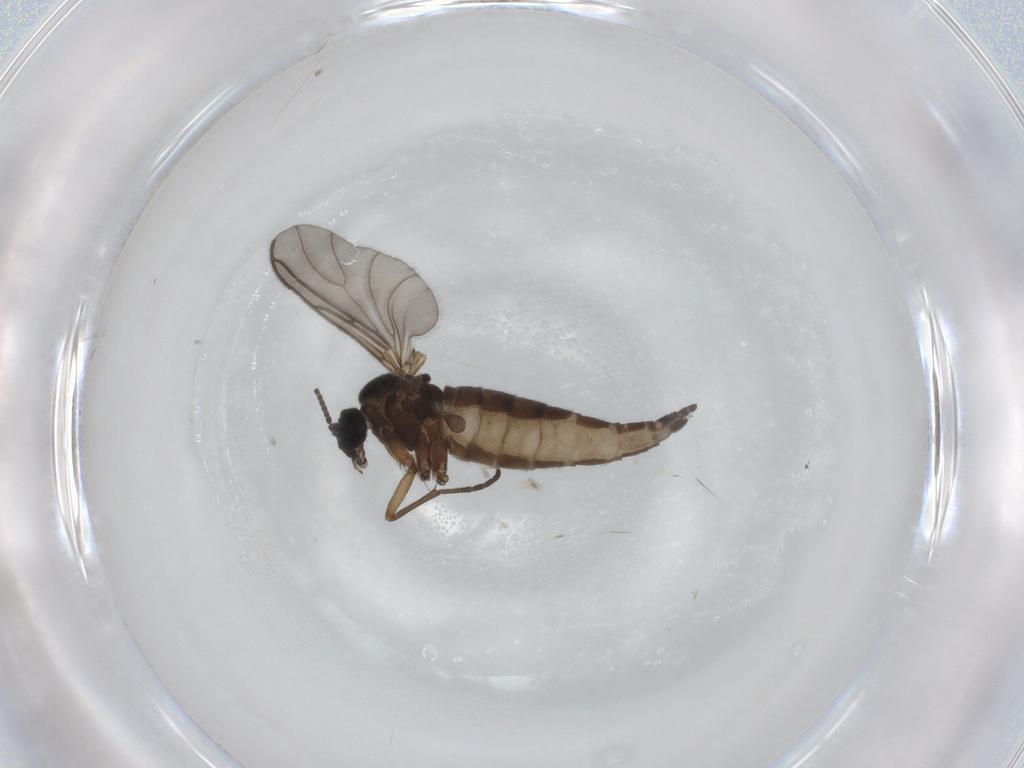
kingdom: Animalia
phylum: Arthropoda
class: Insecta
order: Diptera
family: Sciaridae
